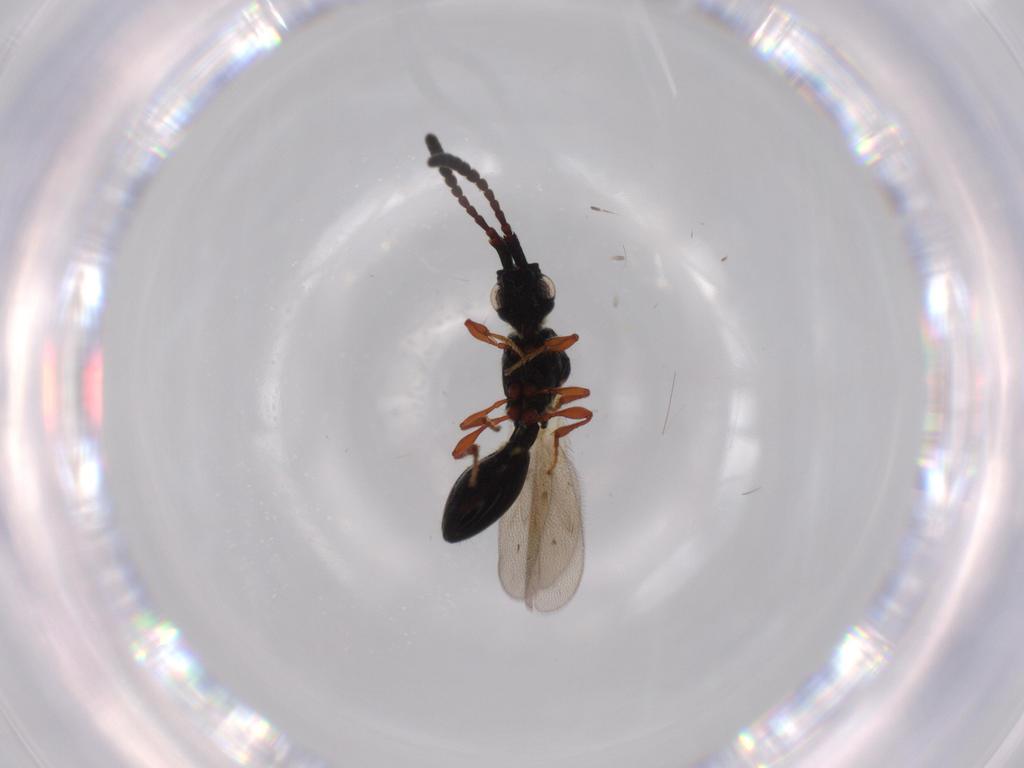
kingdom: Animalia
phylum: Arthropoda
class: Insecta
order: Hymenoptera
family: Diapriidae
